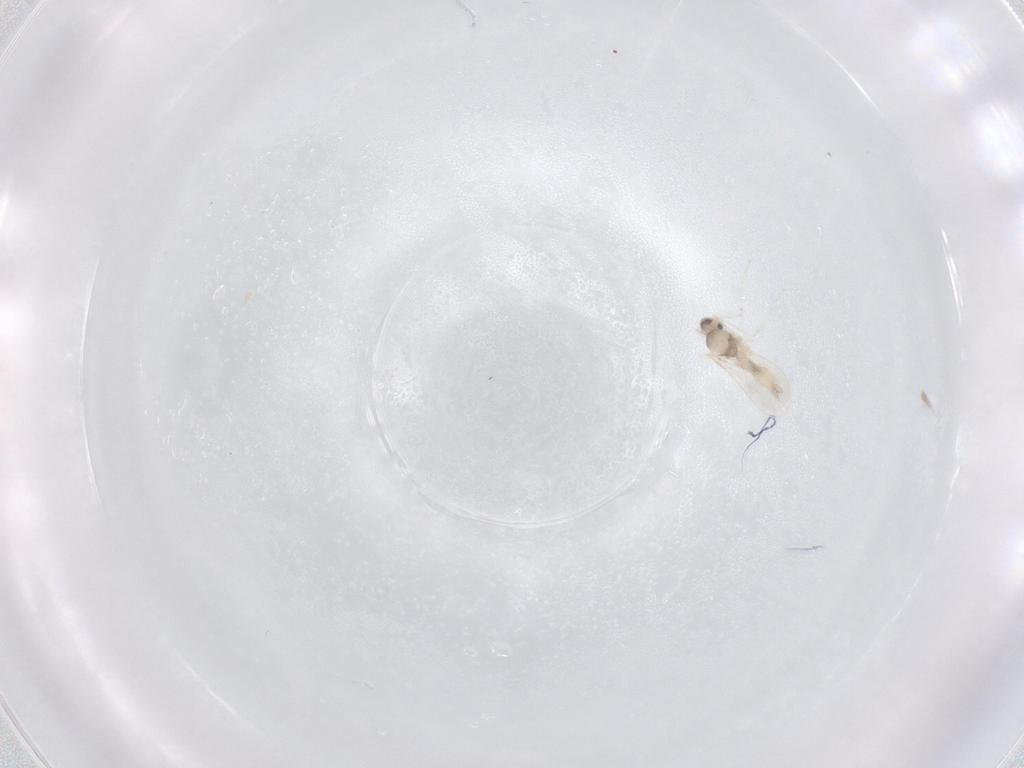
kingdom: Animalia
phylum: Arthropoda
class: Insecta
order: Diptera
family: Cecidomyiidae
